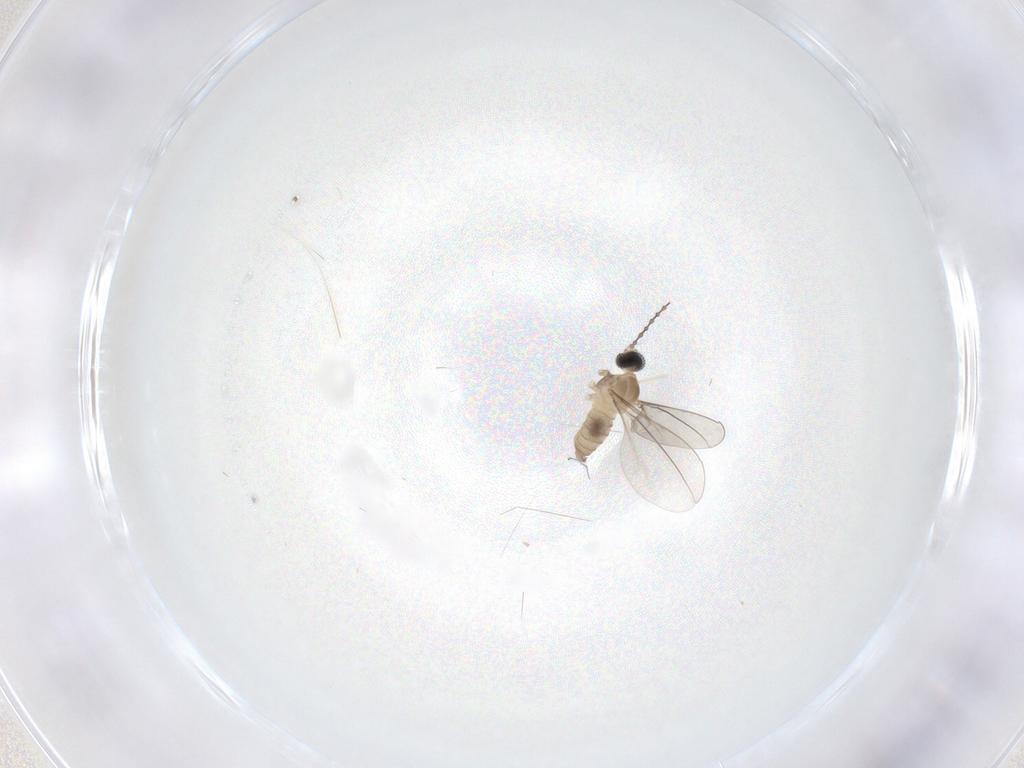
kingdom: Animalia
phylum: Arthropoda
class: Insecta
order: Diptera
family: Cecidomyiidae
